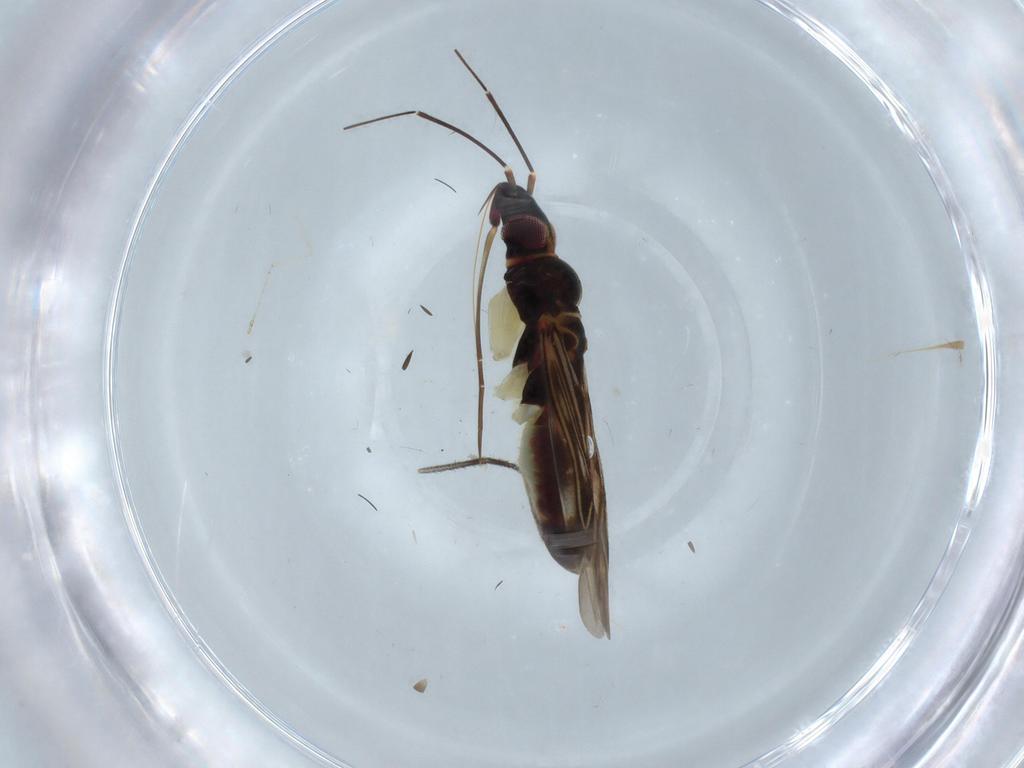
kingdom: Animalia
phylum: Arthropoda
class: Insecta
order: Hemiptera
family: Miridae
